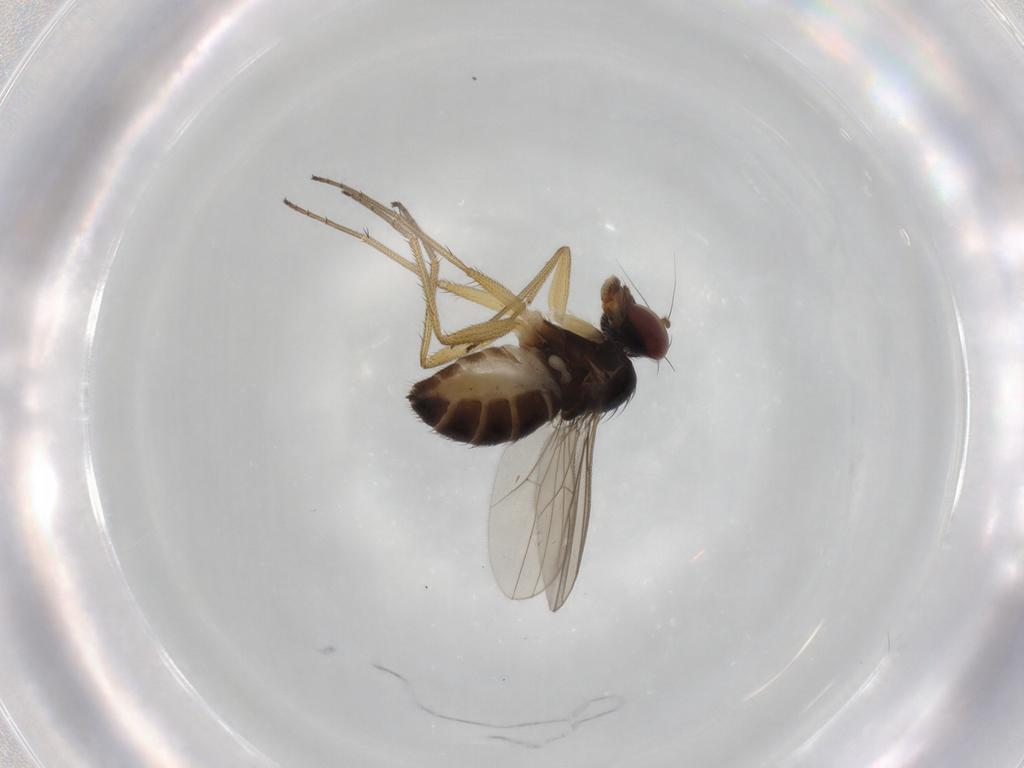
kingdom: Animalia
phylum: Arthropoda
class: Insecta
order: Diptera
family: Dolichopodidae
